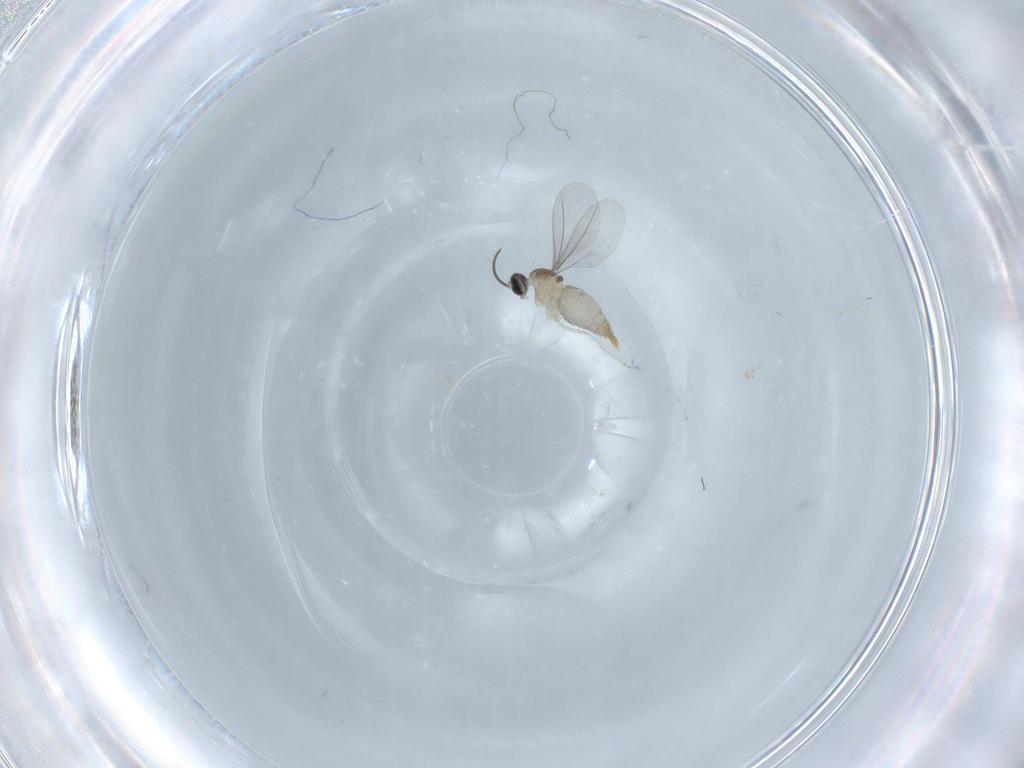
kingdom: Animalia
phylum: Arthropoda
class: Insecta
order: Diptera
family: Cecidomyiidae
